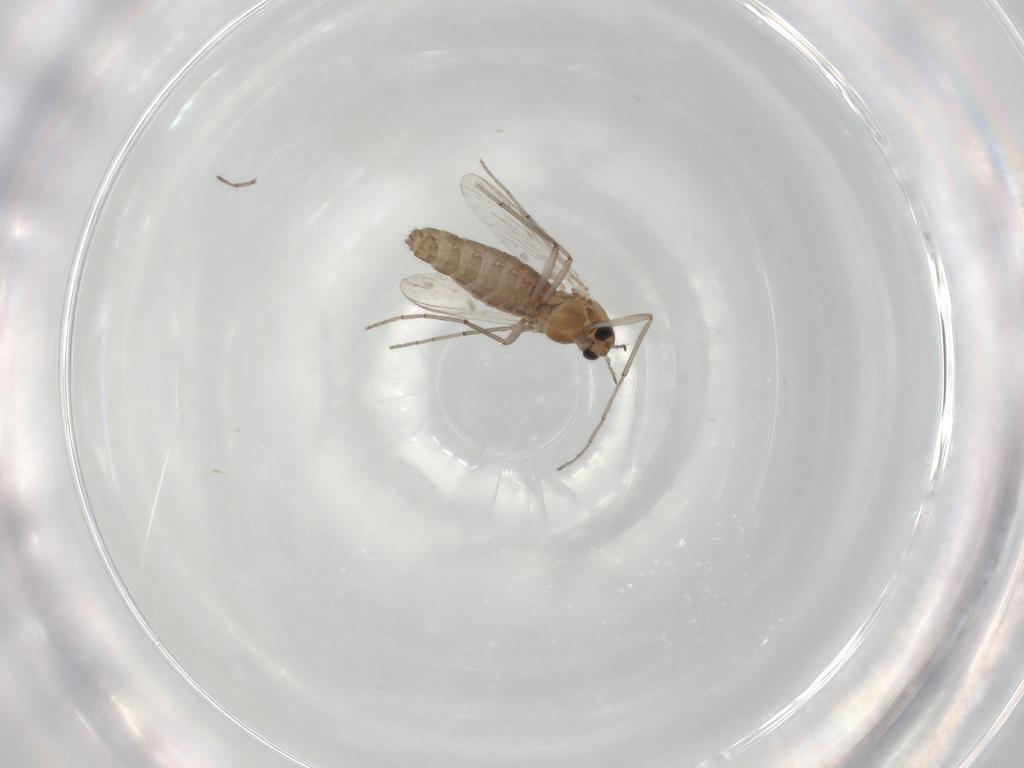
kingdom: Animalia
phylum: Arthropoda
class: Insecta
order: Diptera
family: Chironomidae
